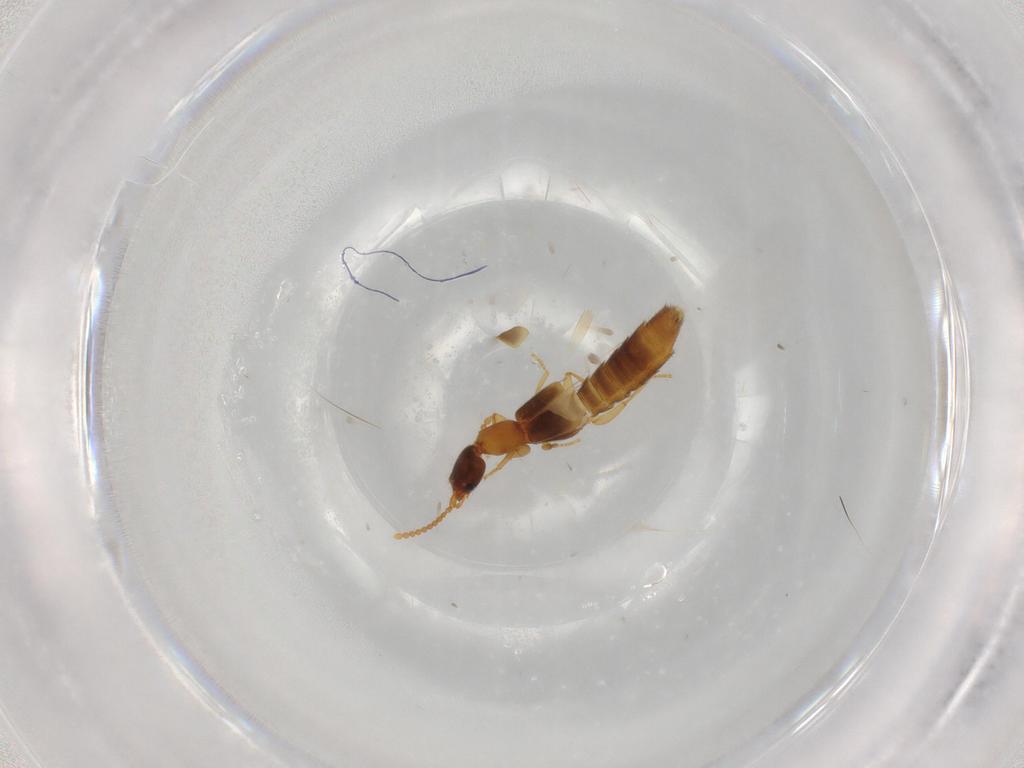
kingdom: Animalia
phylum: Arthropoda
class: Insecta
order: Coleoptera
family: Staphylinidae
